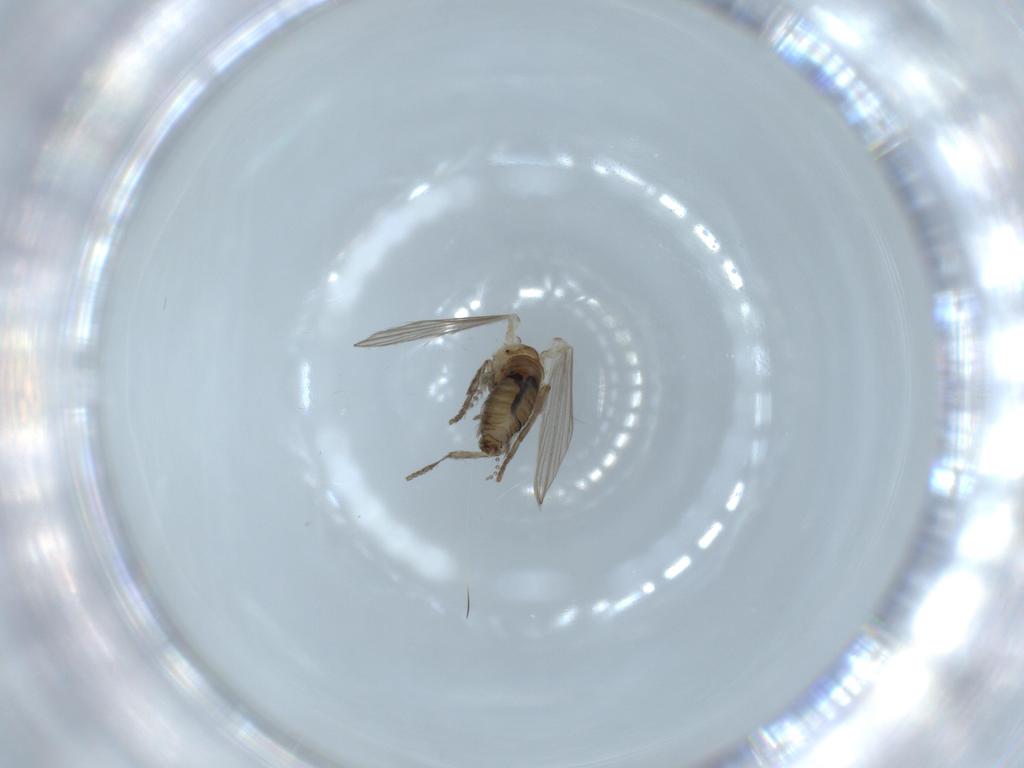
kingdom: Animalia
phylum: Arthropoda
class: Insecta
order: Diptera
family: Psychodidae
